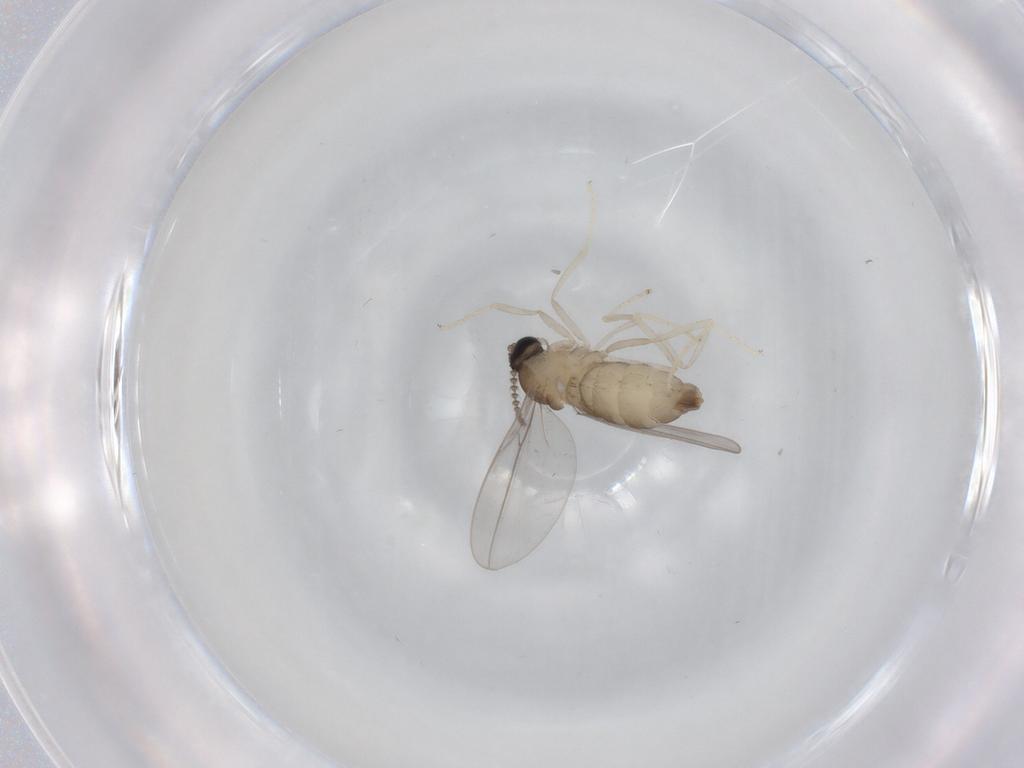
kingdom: Animalia
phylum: Arthropoda
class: Insecta
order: Diptera
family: Cecidomyiidae
